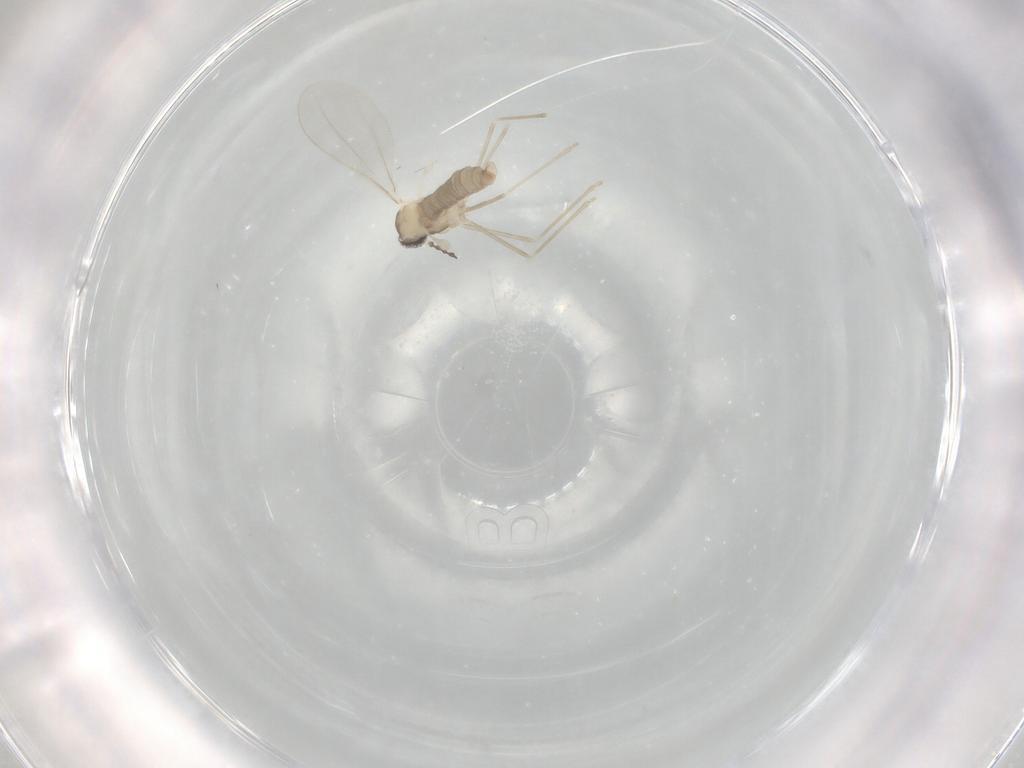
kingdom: Animalia
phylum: Arthropoda
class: Insecta
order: Diptera
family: Cecidomyiidae
